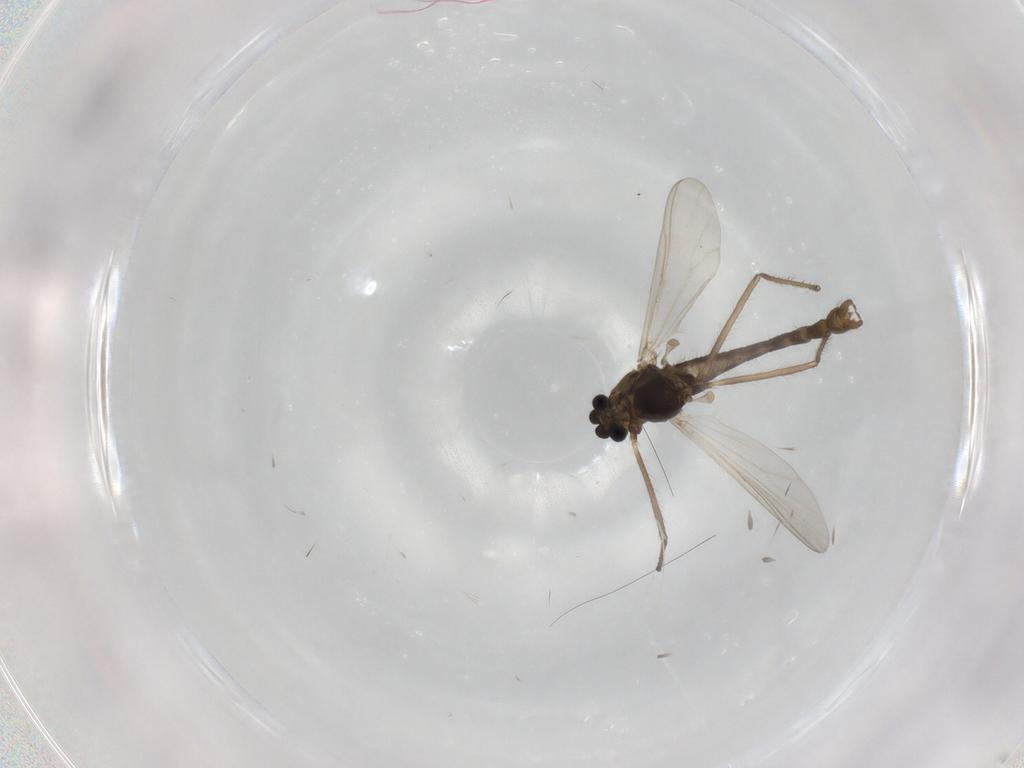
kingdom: Animalia
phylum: Arthropoda
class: Insecta
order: Diptera
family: Chironomidae
